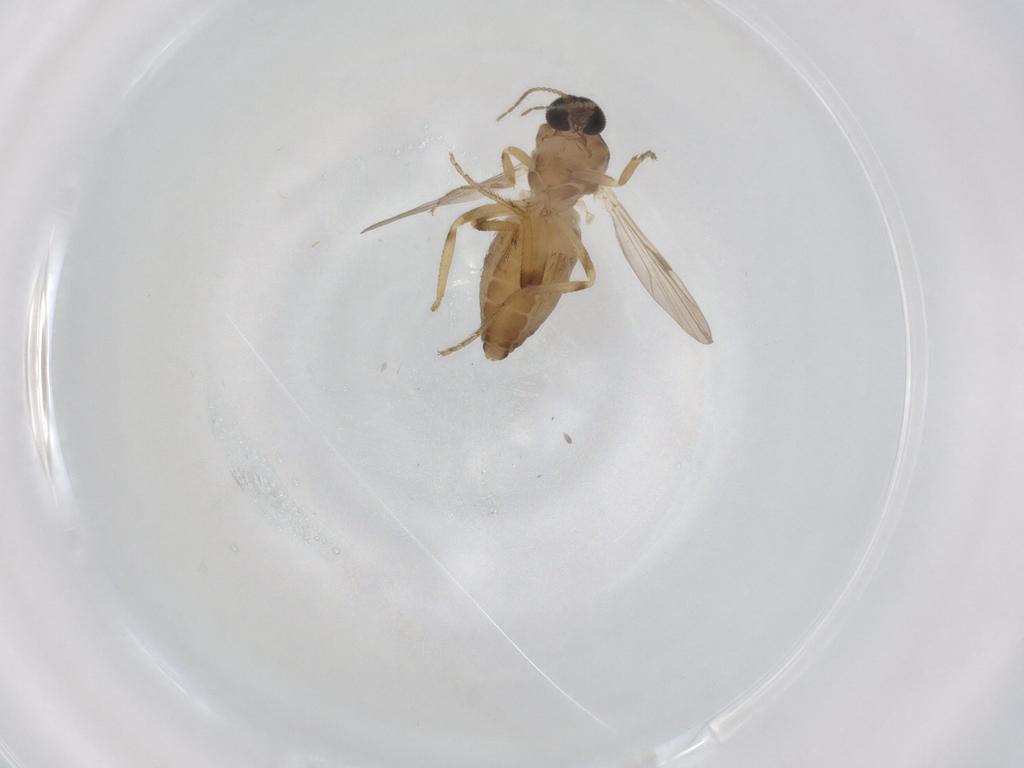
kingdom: Animalia
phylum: Arthropoda
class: Insecta
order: Diptera
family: Ceratopogonidae
